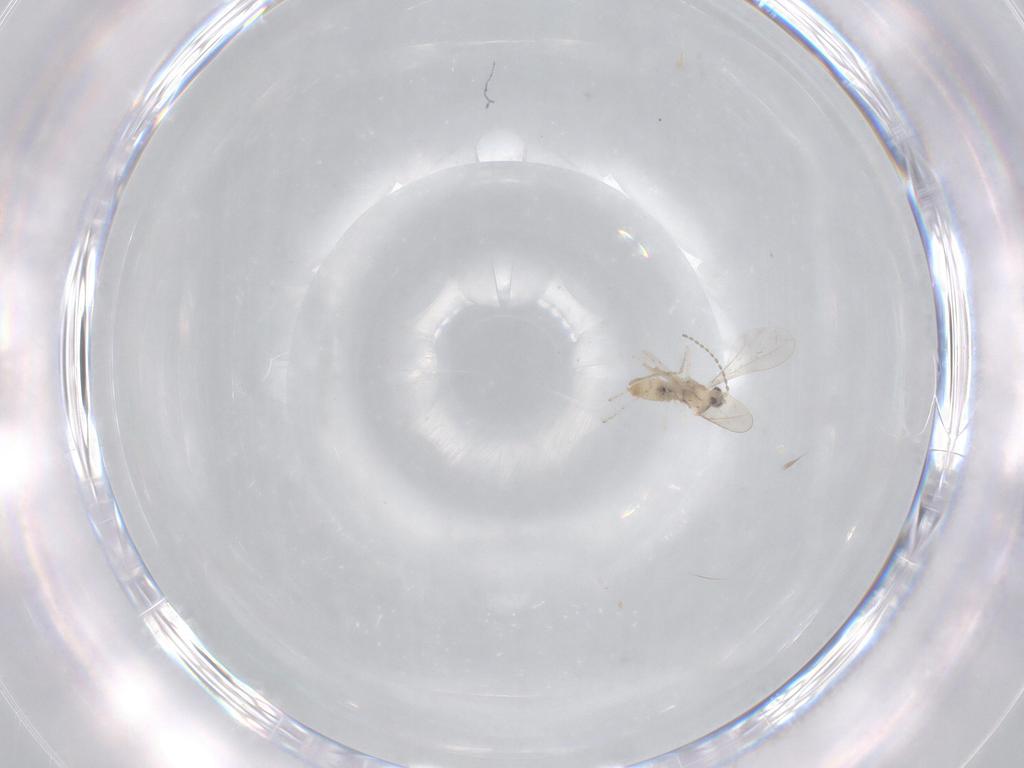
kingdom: Animalia
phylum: Arthropoda
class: Insecta
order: Diptera
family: Cecidomyiidae
